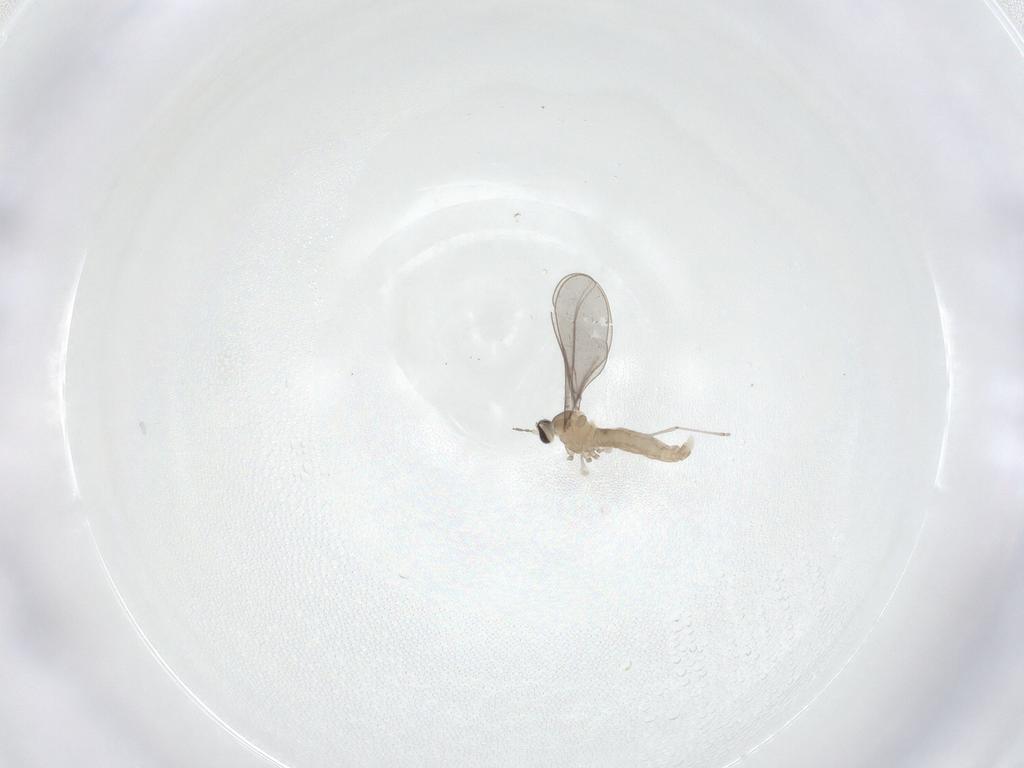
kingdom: Animalia
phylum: Arthropoda
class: Insecta
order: Diptera
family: Cecidomyiidae
